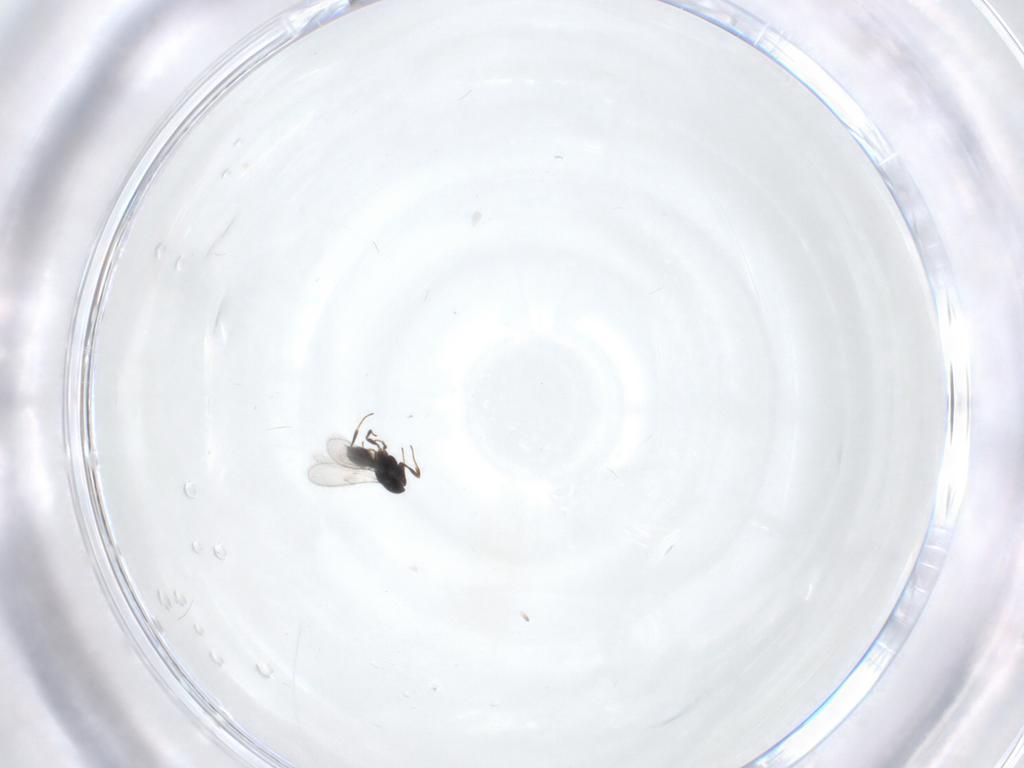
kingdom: Animalia
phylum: Arthropoda
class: Insecta
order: Hymenoptera
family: Scelionidae
